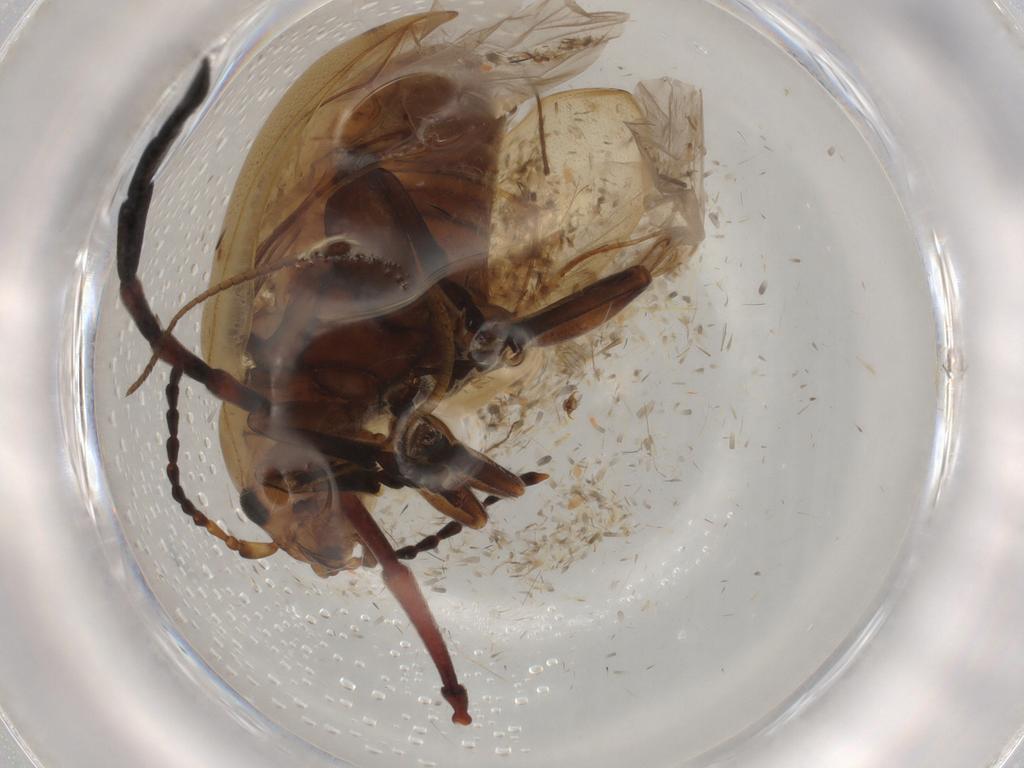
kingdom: Animalia
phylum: Arthropoda
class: Insecta
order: Coleoptera
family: Chrysomelidae
